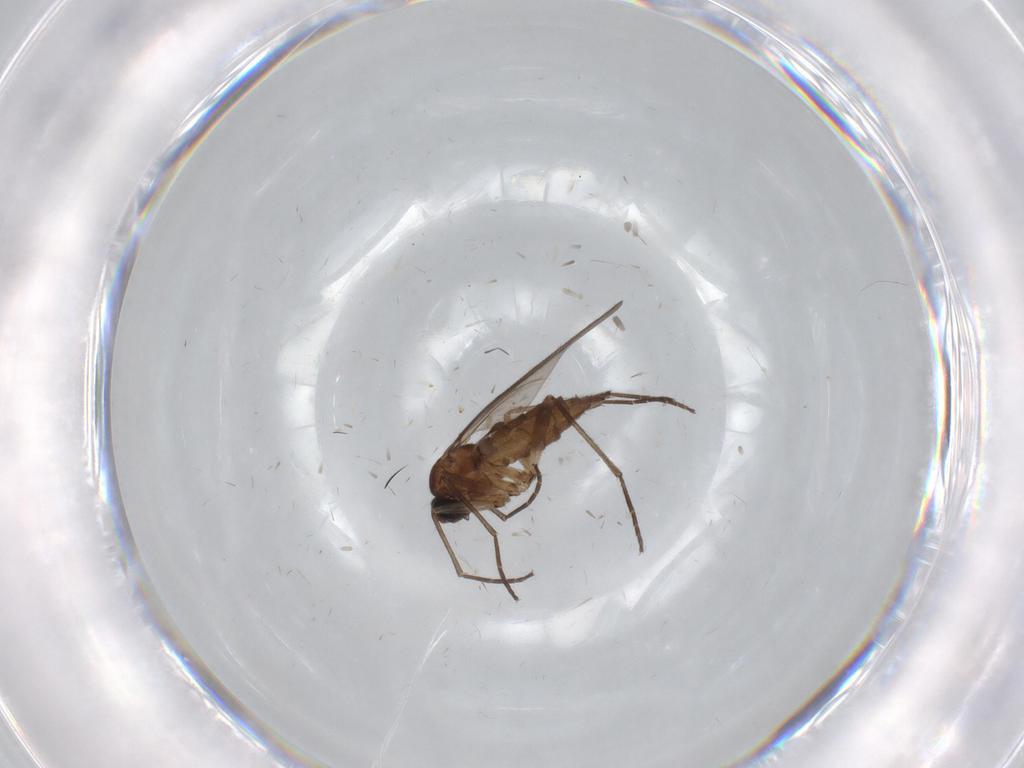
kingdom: Animalia
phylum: Arthropoda
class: Insecta
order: Diptera
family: Sciaridae
